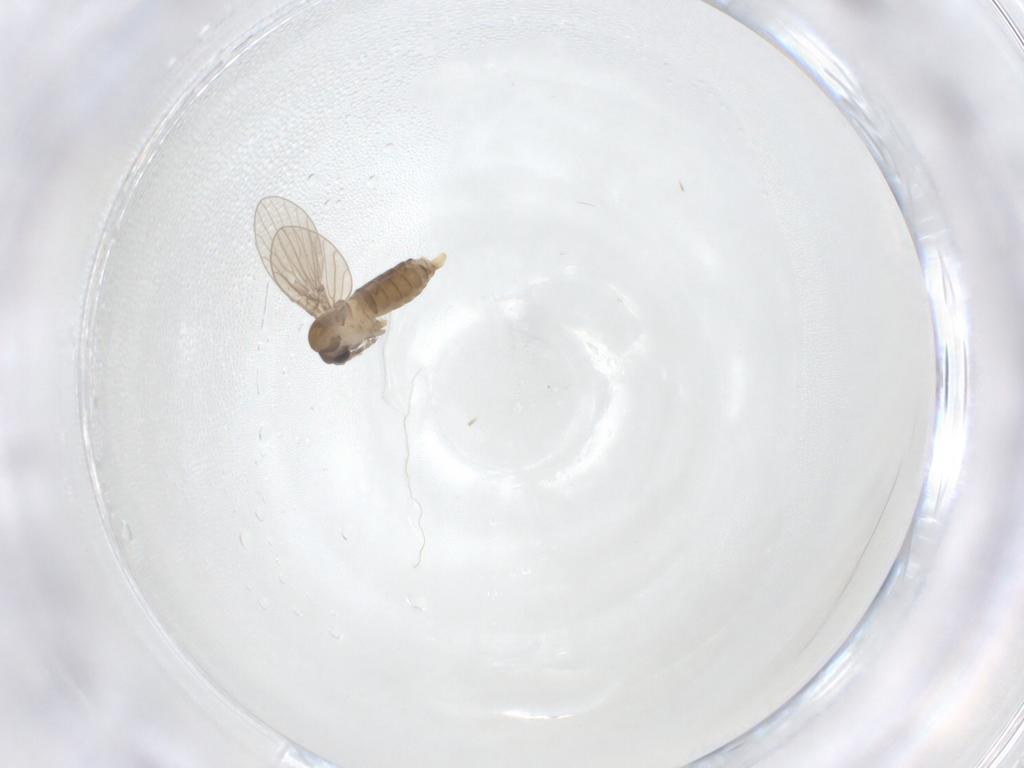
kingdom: Animalia
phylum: Arthropoda
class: Insecta
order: Diptera
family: Psychodidae
